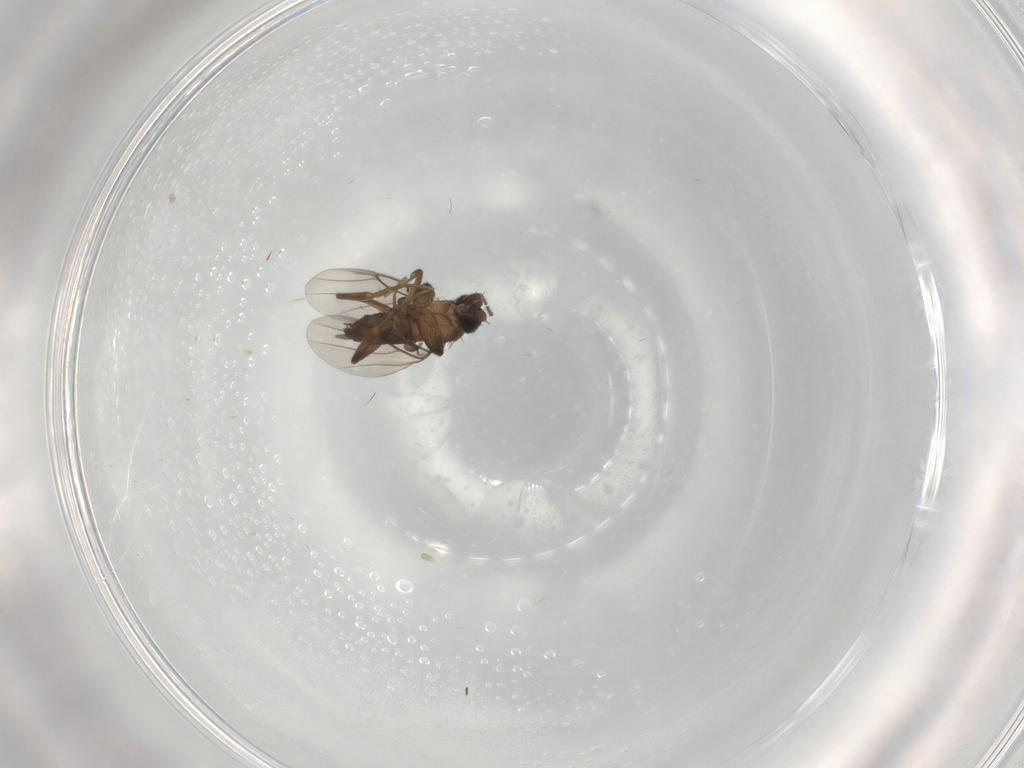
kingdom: Animalia
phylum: Arthropoda
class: Insecta
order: Diptera
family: Phoridae
